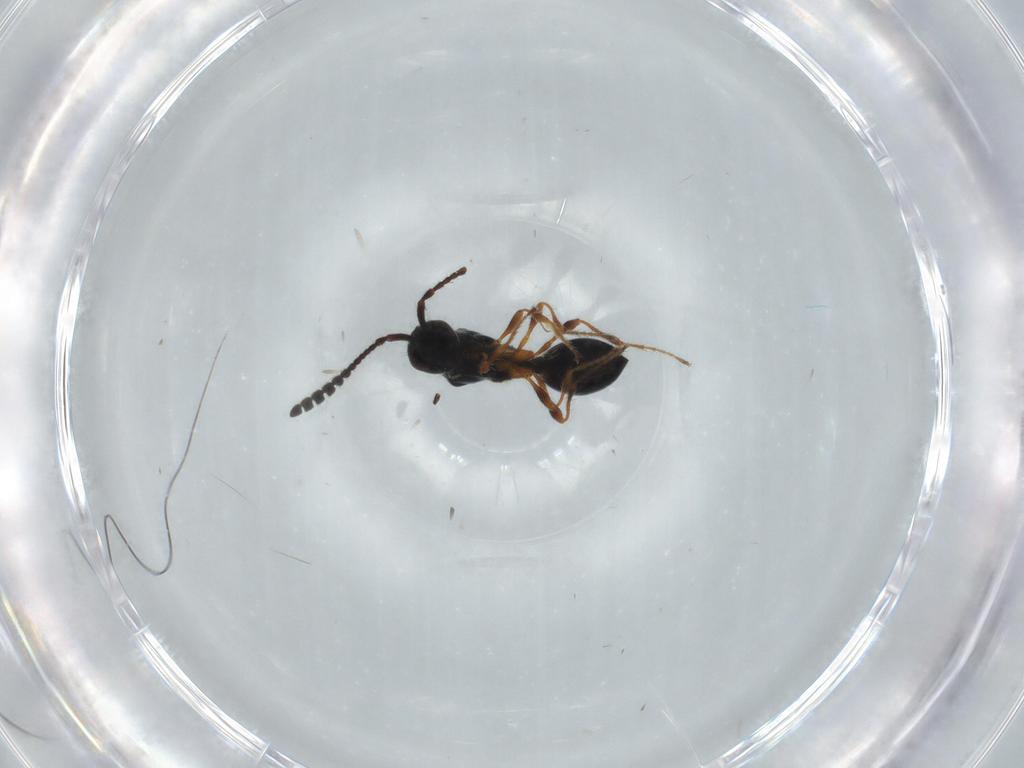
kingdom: Animalia
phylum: Arthropoda
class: Insecta
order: Hymenoptera
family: Diapriidae
